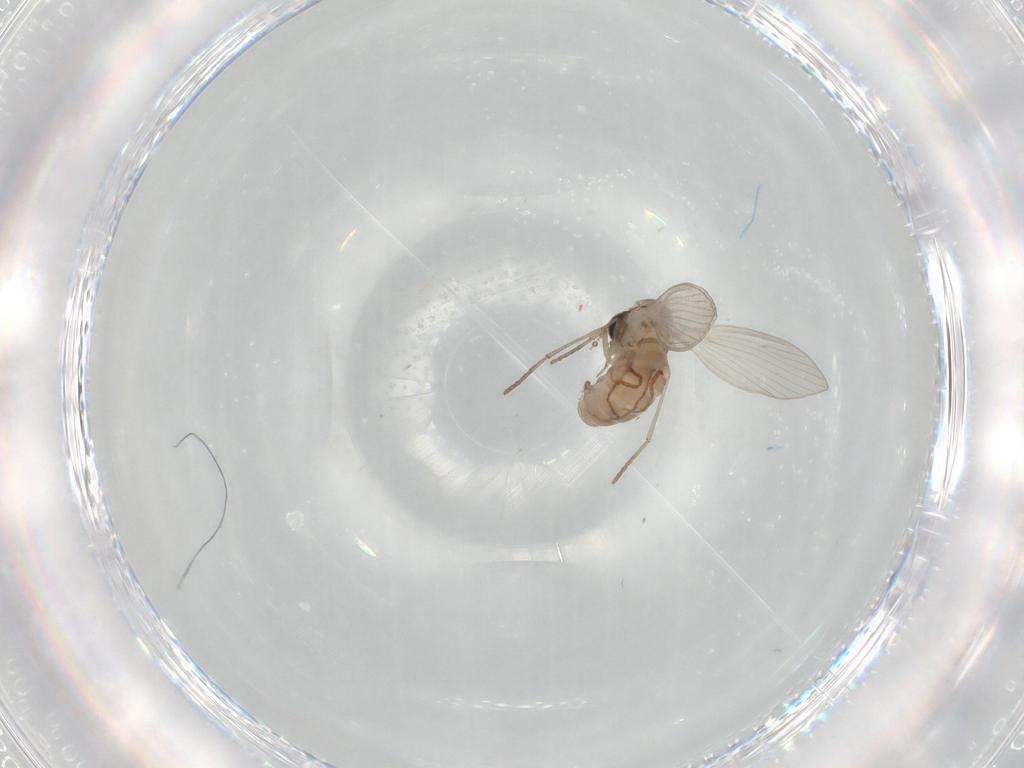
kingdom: Animalia
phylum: Arthropoda
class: Insecta
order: Diptera
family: Psychodidae
